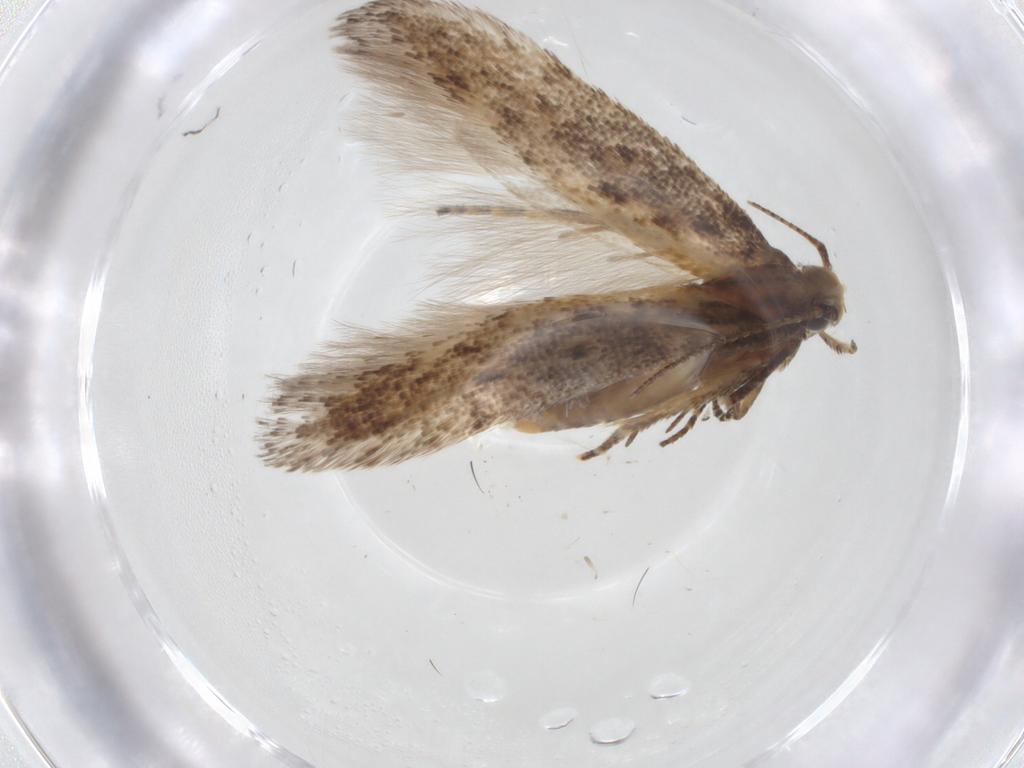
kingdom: Animalia
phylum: Arthropoda
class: Insecta
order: Lepidoptera
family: Gelechiidae
